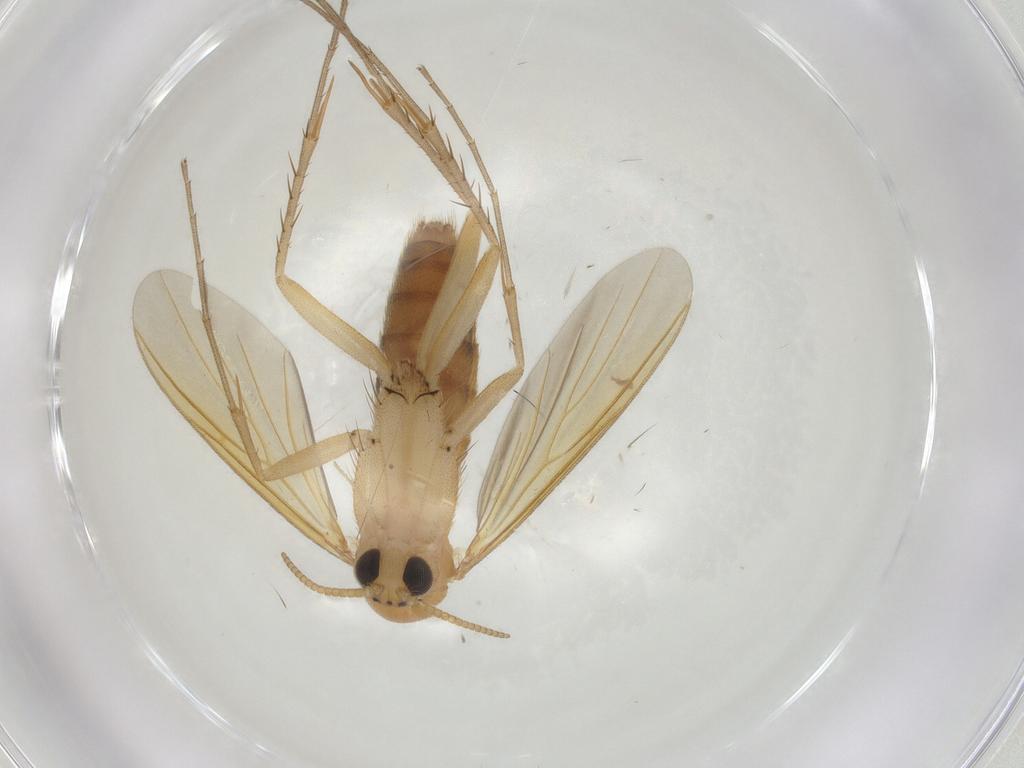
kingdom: Animalia
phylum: Arthropoda
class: Insecta
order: Diptera
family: Mycetophilidae
